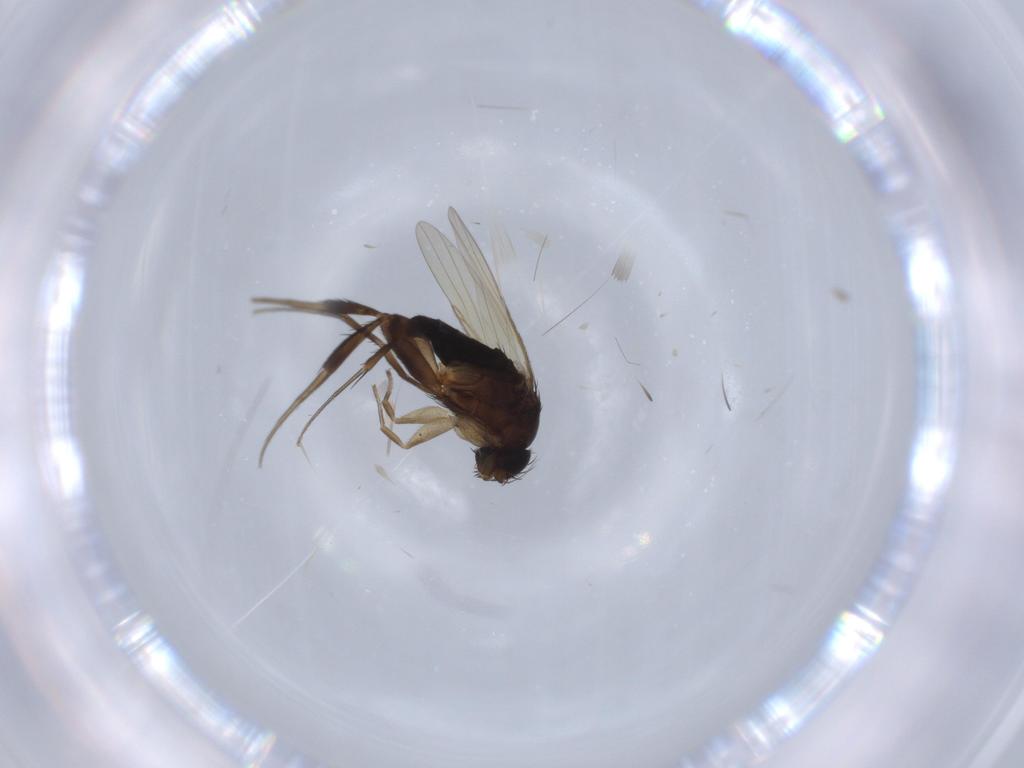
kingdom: Animalia
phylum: Arthropoda
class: Insecta
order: Diptera
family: Phoridae
